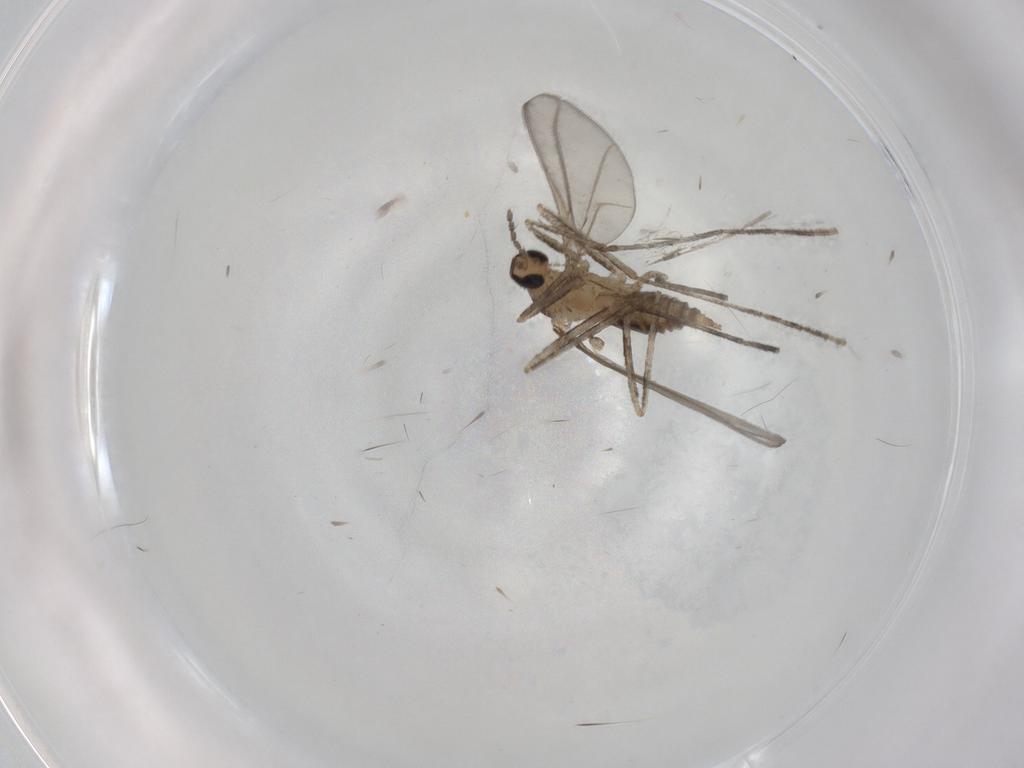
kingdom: Animalia
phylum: Arthropoda
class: Insecta
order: Diptera
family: Cecidomyiidae
